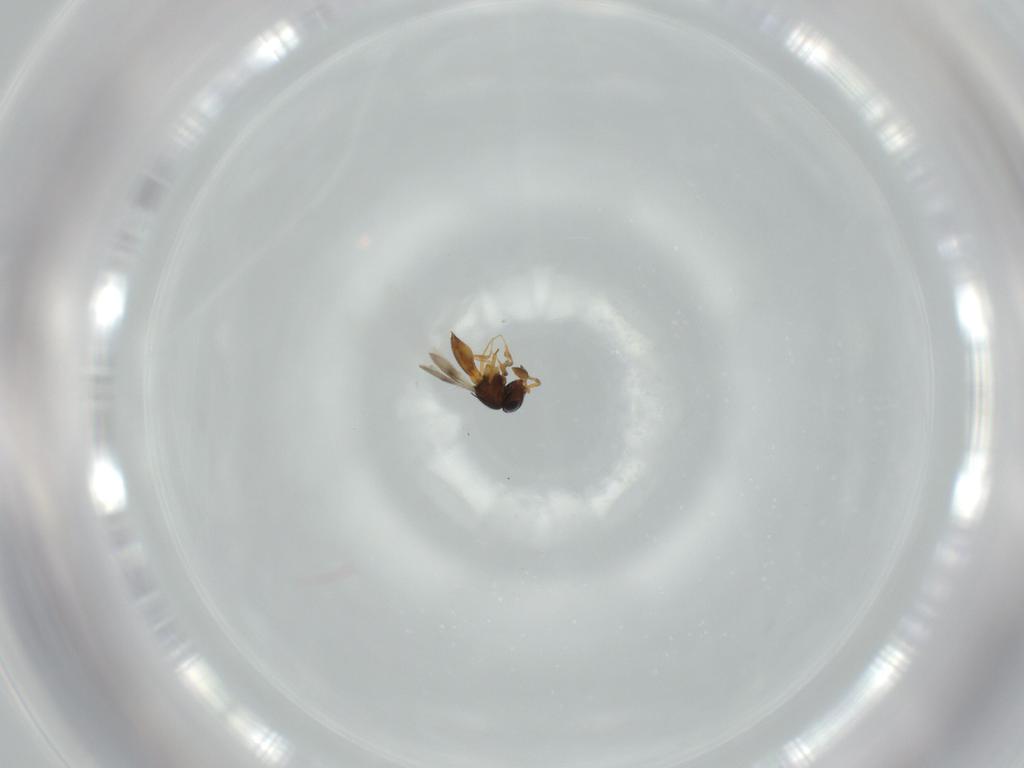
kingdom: Animalia
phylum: Arthropoda
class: Insecta
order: Hymenoptera
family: Scelionidae
